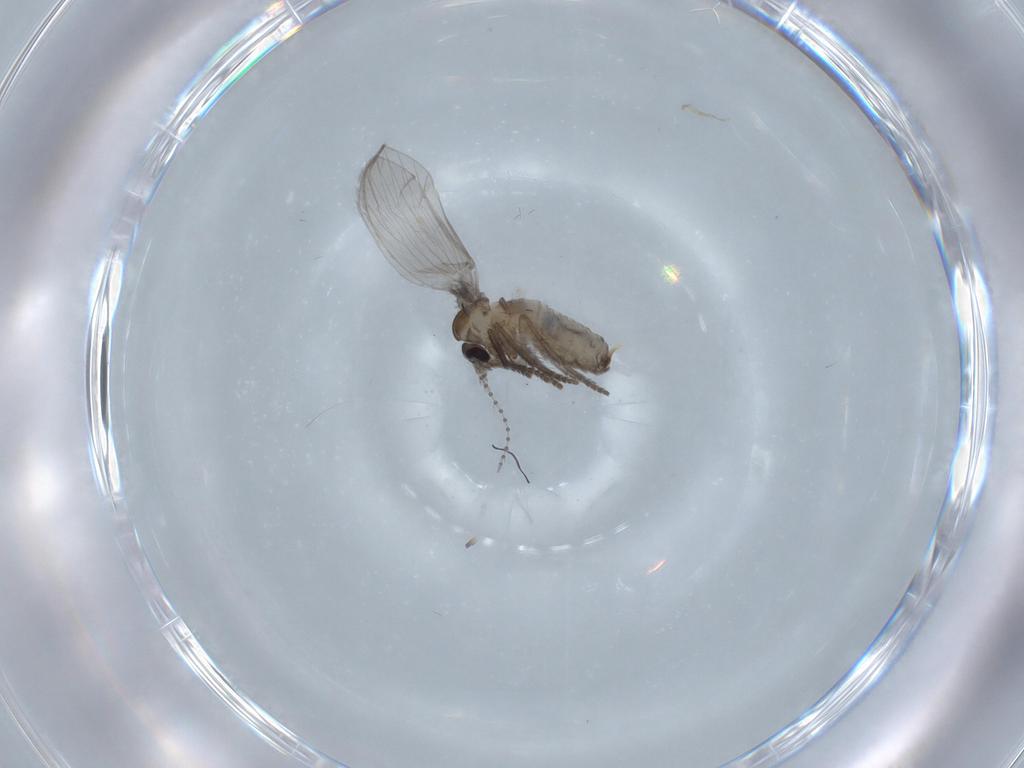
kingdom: Animalia
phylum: Arthropoda
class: Insecta
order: Diptera
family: Psychodidae
